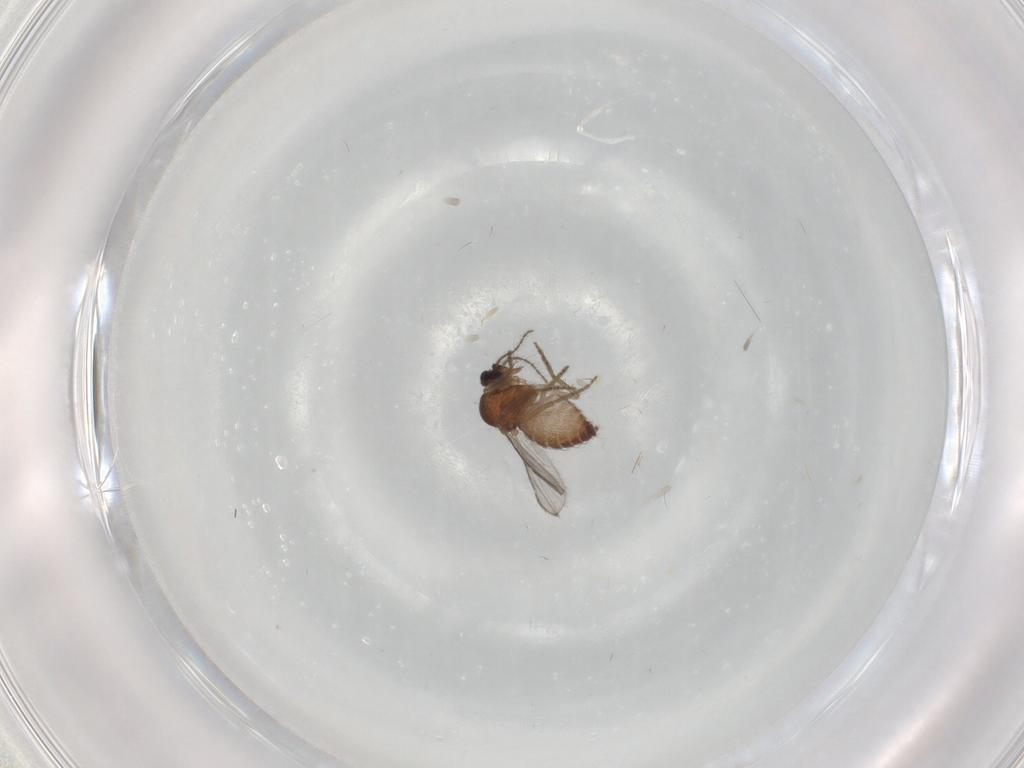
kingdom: Animalia
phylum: Arthropoda
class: Insecta
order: Diptera
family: Ceratopogonidae
